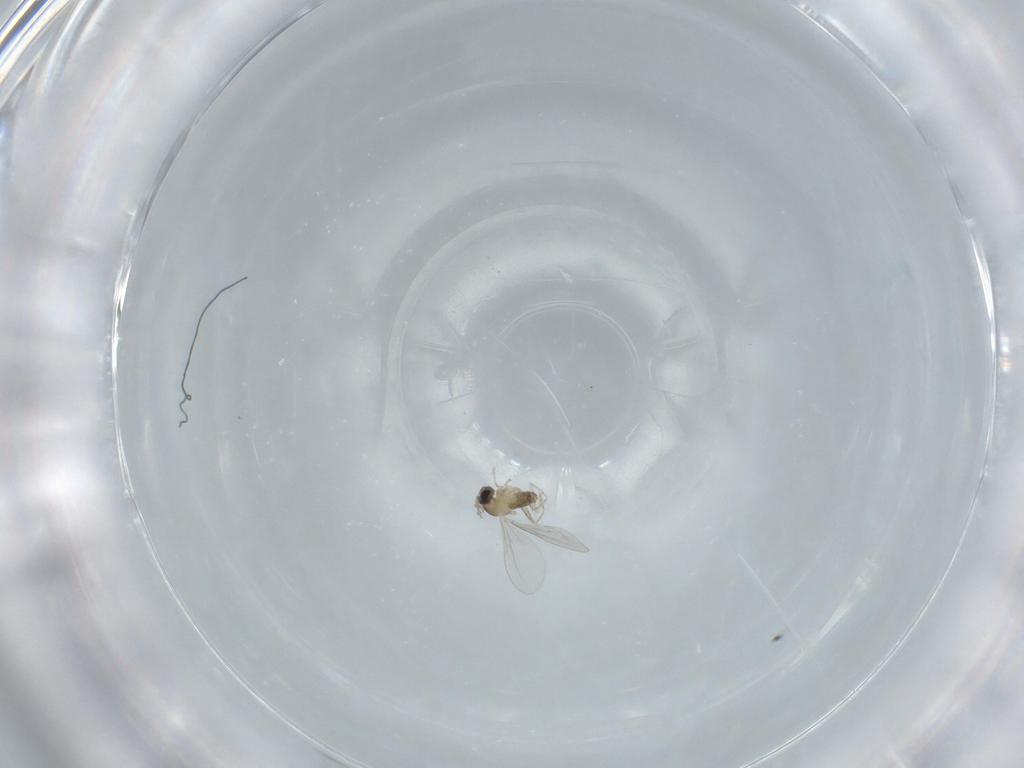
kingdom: Animalia
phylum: Arthropoda
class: Insecta
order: Diptera
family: Cecidomyiidae
